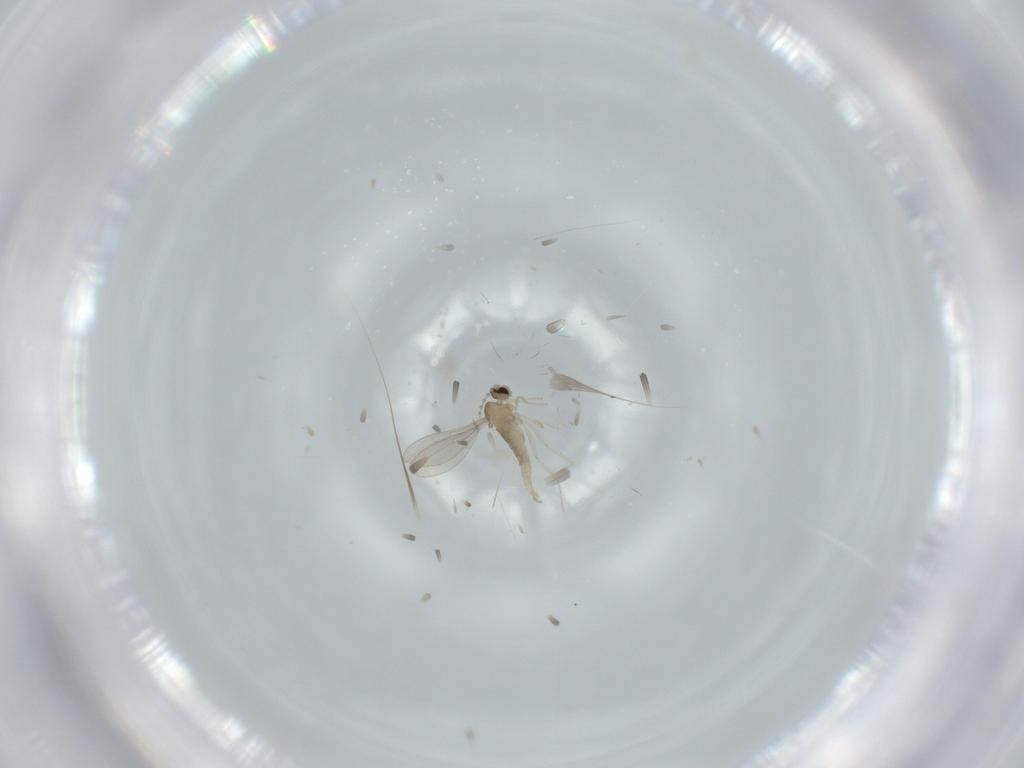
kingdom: Animalia
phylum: Arthropoda
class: Insecta
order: Diptera
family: Cecidomyiidae
